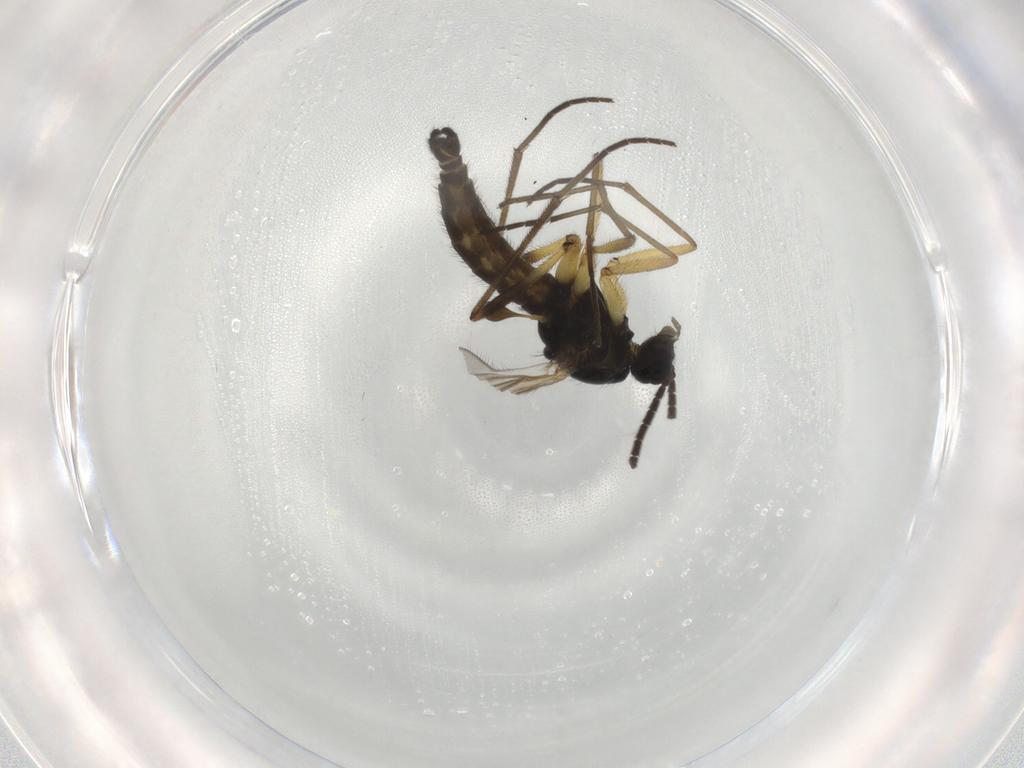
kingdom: Animalia
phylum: Arthropoda
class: Insecta
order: Diptera
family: Sciaridae
